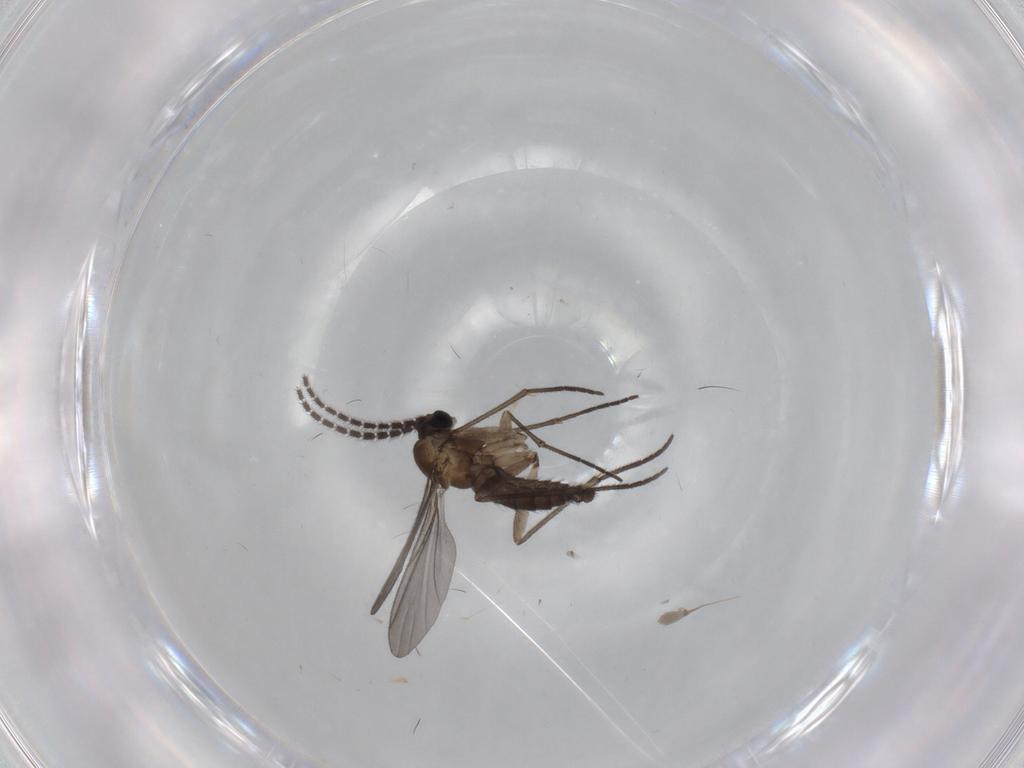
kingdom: Animalia
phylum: Arthropoda
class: Insecta
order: Diptera
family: Sciaridae
